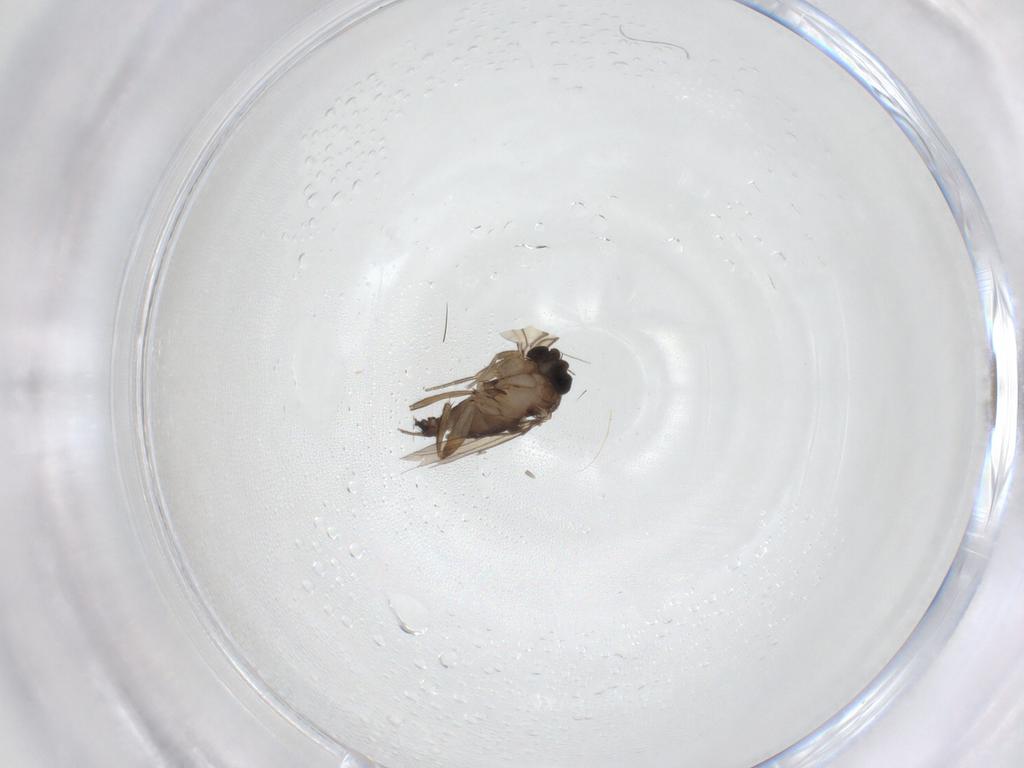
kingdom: Animalia
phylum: Arthropoda
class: Insecta
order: Diptera
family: Phoridae
